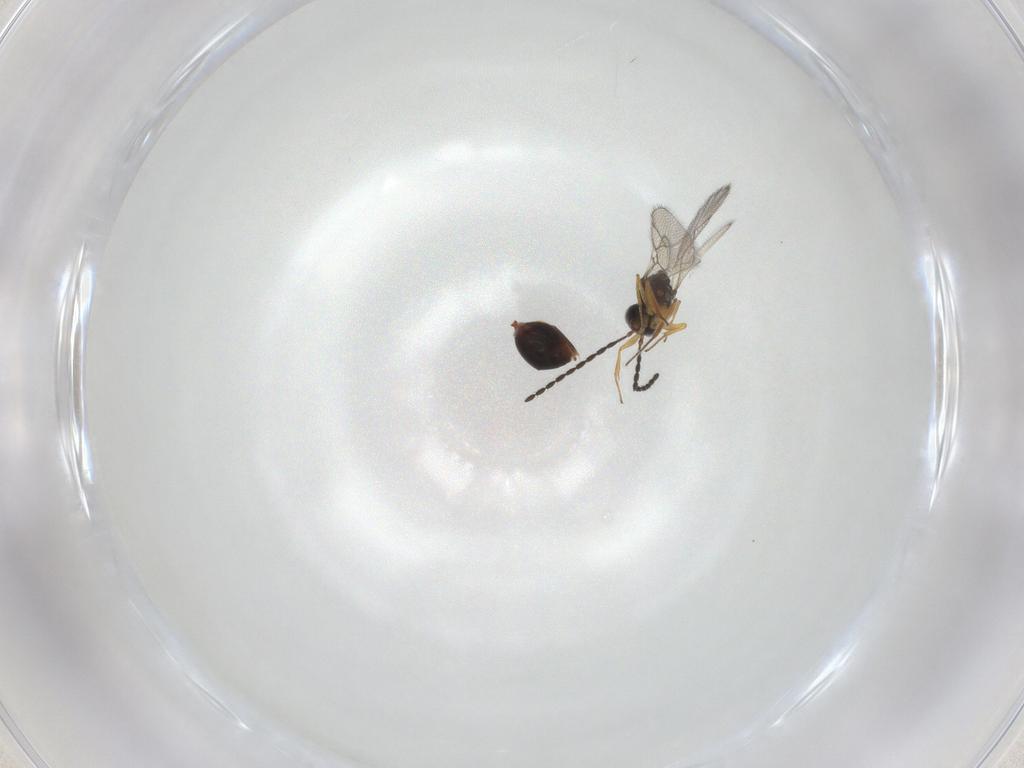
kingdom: Animalia
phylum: Arthropoda
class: Insecta
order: Hymenoptera
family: Figitidae
